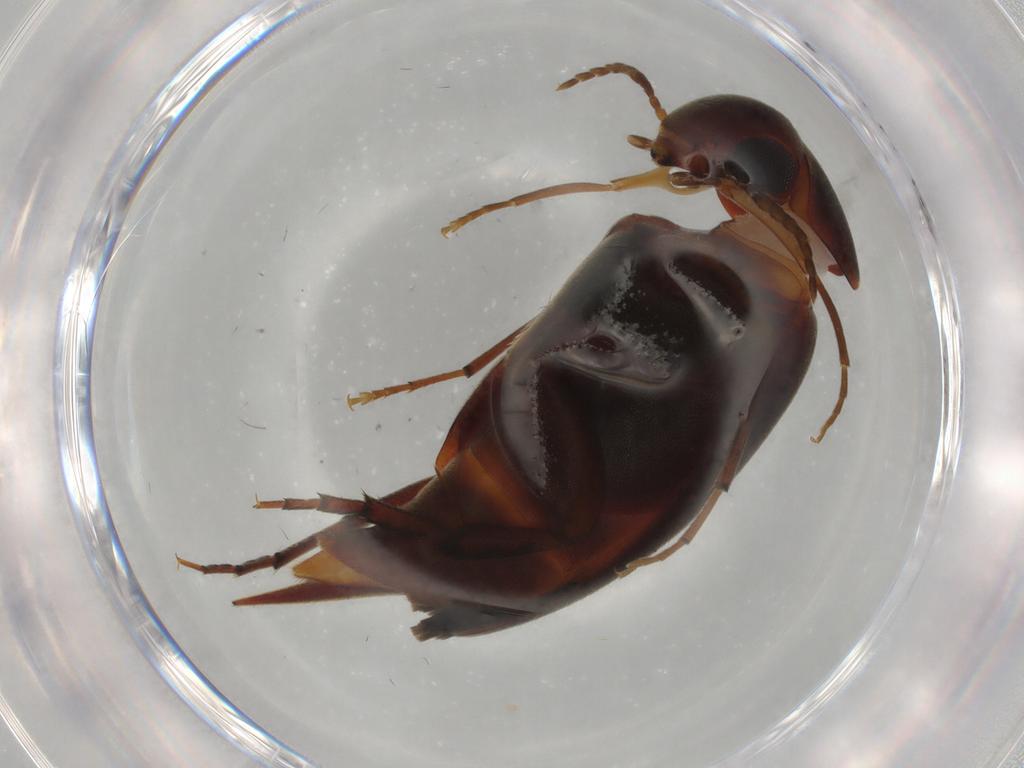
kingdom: Animalia
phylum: Arthropoda
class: Insecta
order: Coleoptera
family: Mordellidae
